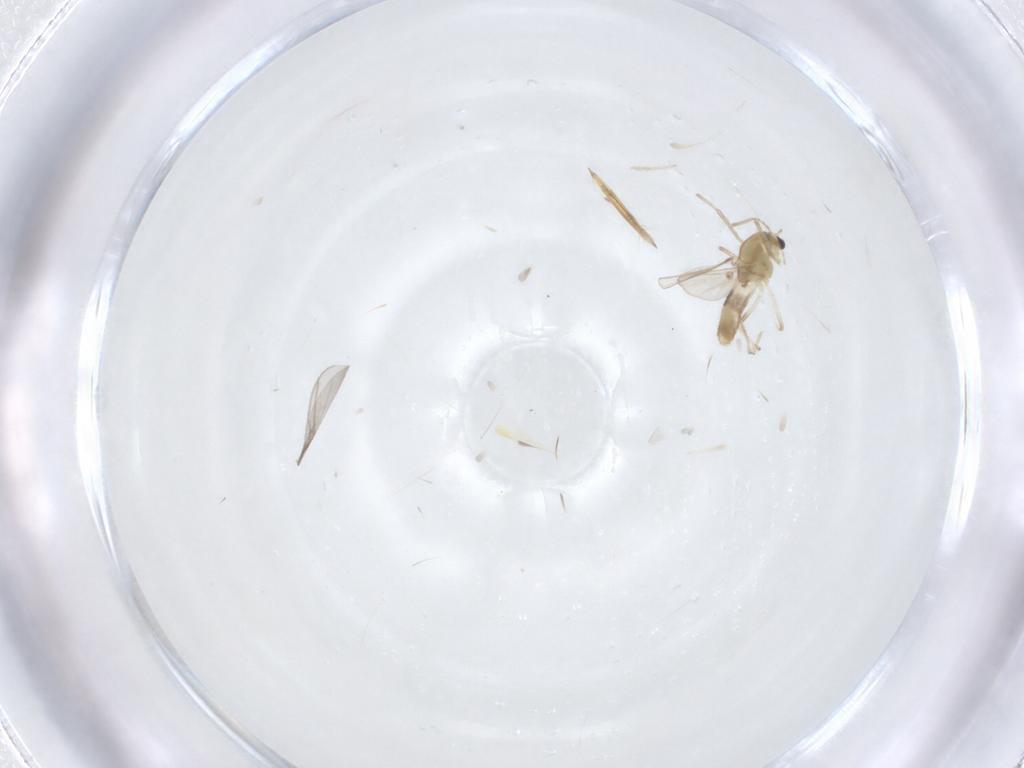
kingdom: Animalia
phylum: Arthropoda
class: Insecta
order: Diptera
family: Chironomidae
